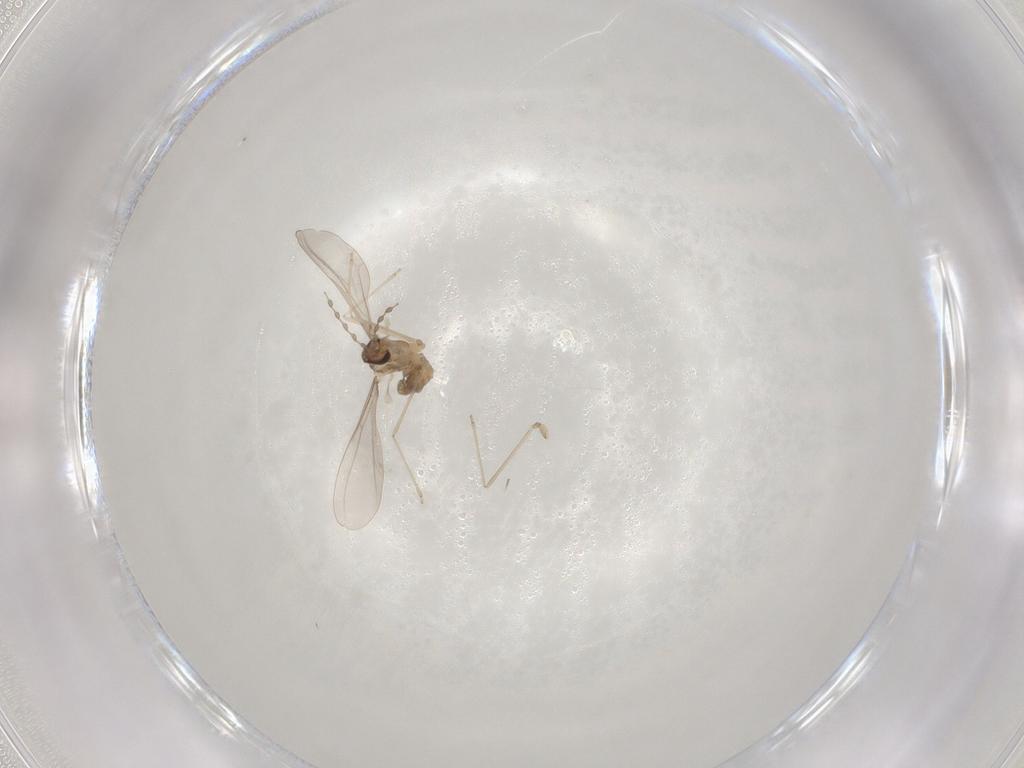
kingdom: Animalia
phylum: Arthropoda
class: Insecta
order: Diptera
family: Cecidomyiidae
